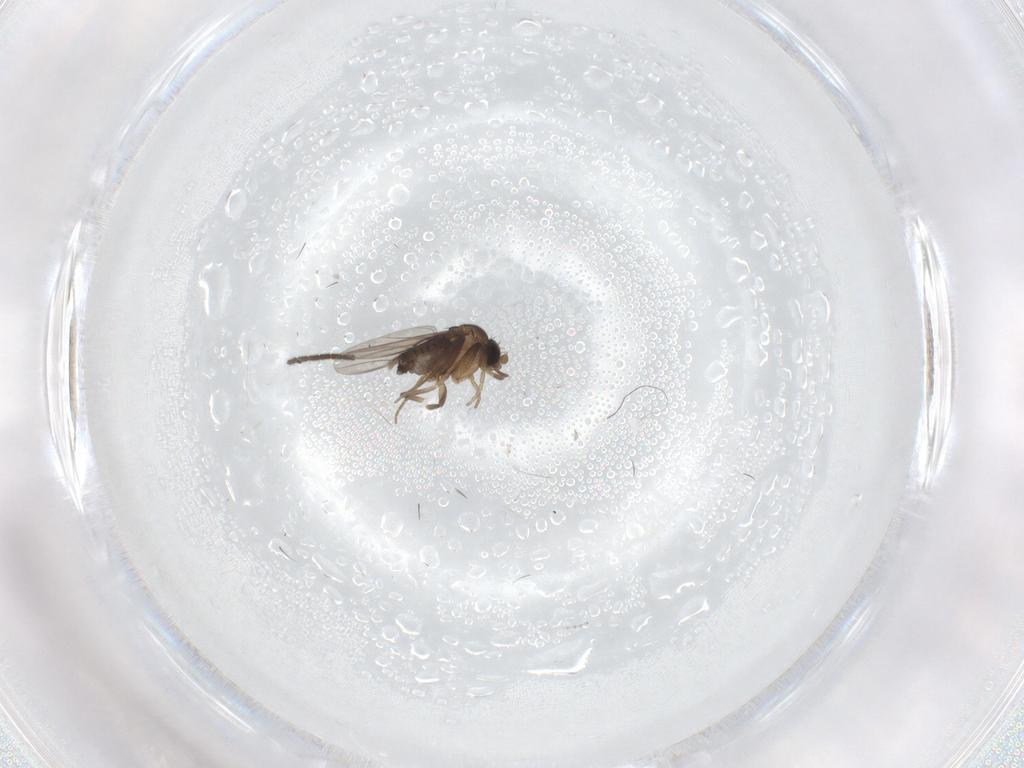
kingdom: Animalia
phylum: Arthropoda
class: Insecta
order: Diptera
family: Cecidomyiidae
